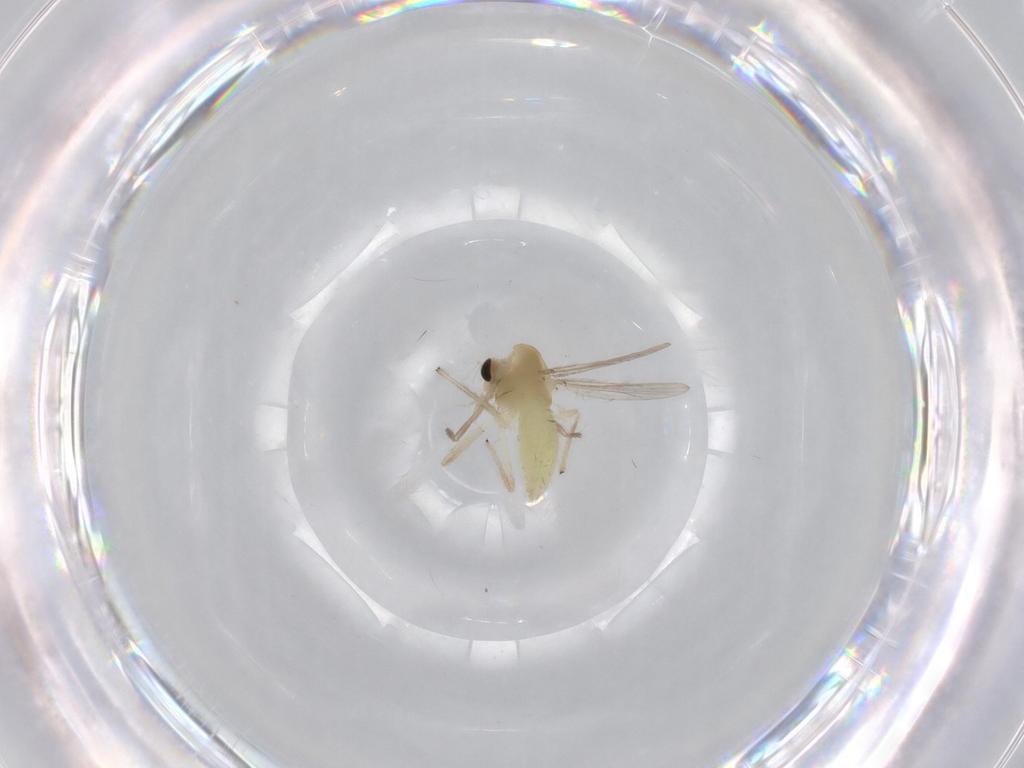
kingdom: Animalia
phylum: Arthropoda
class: Insecta
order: Diptera
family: Cecidomyiidae
